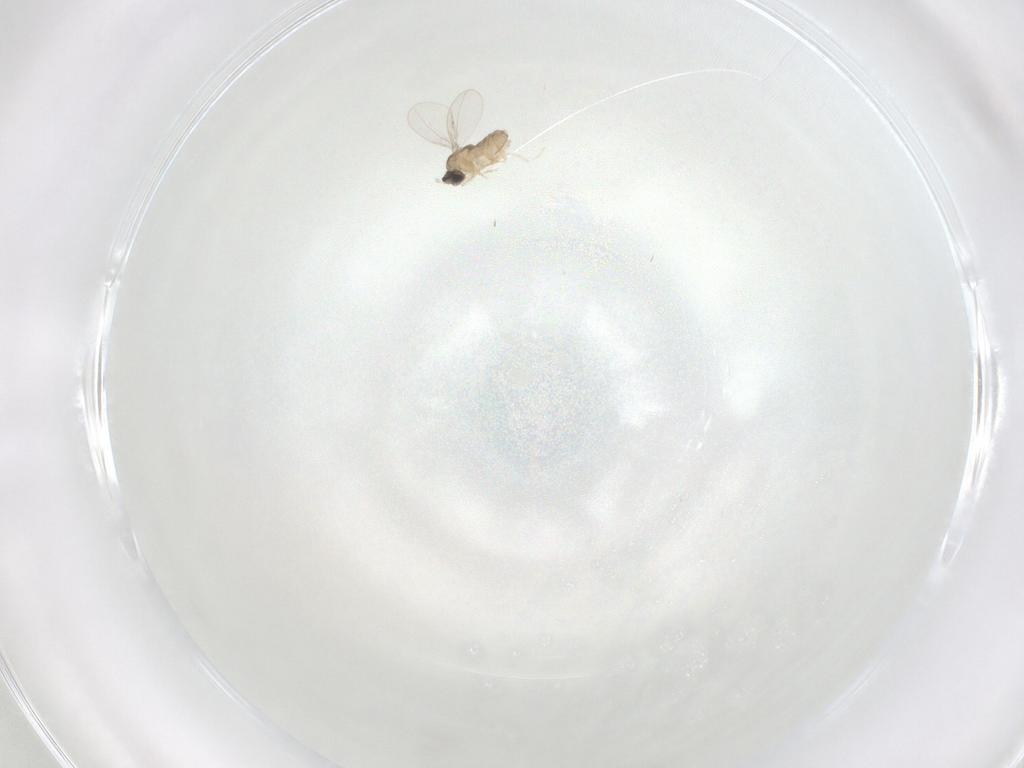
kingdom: Animalia
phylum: Arthropoda
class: Insecta
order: Diptera
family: Cecidomyiidae
